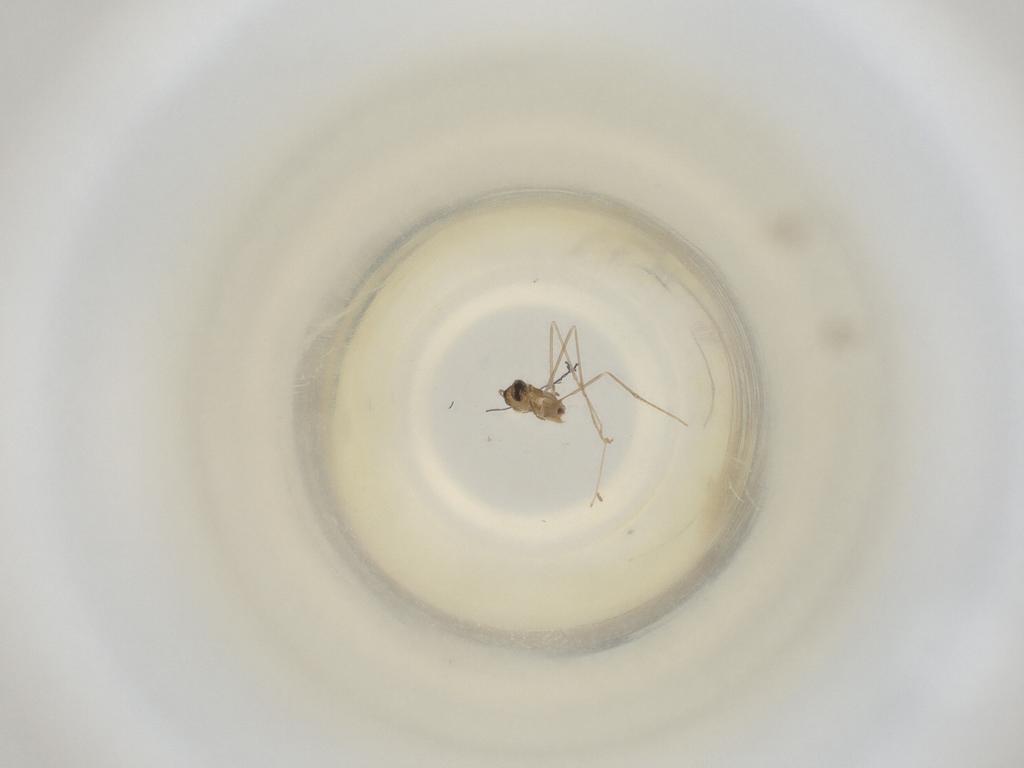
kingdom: Animalia
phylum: Arthropoda
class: Insecta
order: Diptera
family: Cecidomyiidae
